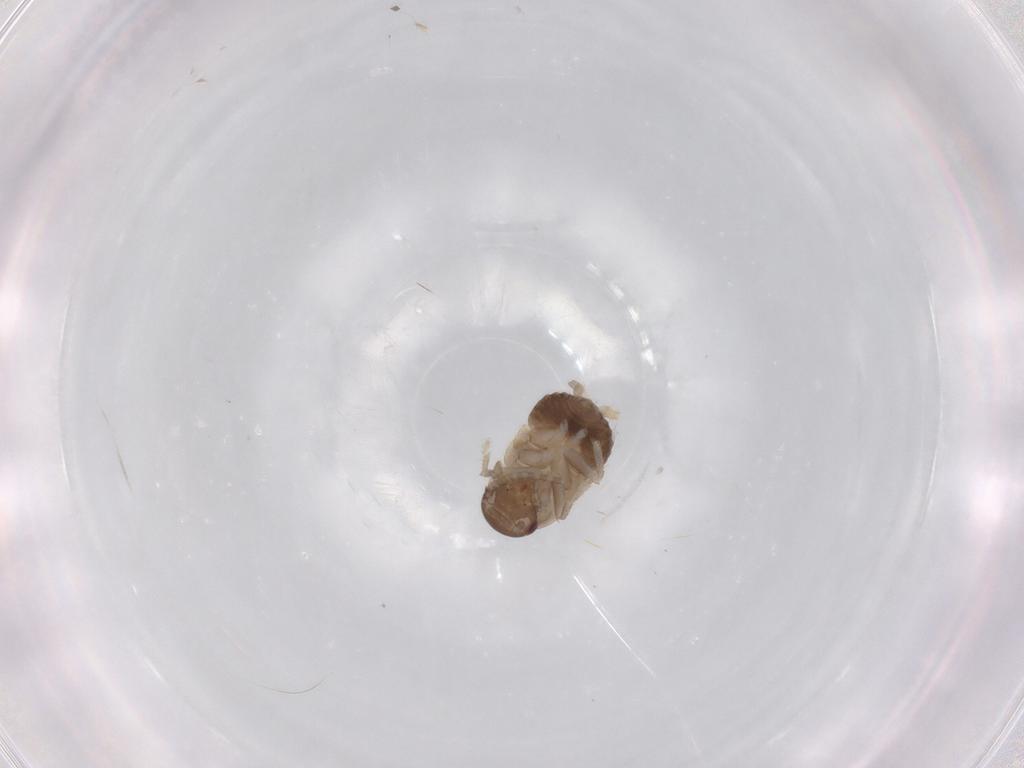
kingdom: Animalia
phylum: Arthropoda
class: Insecta
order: Blattodea
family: Ectobiidae
